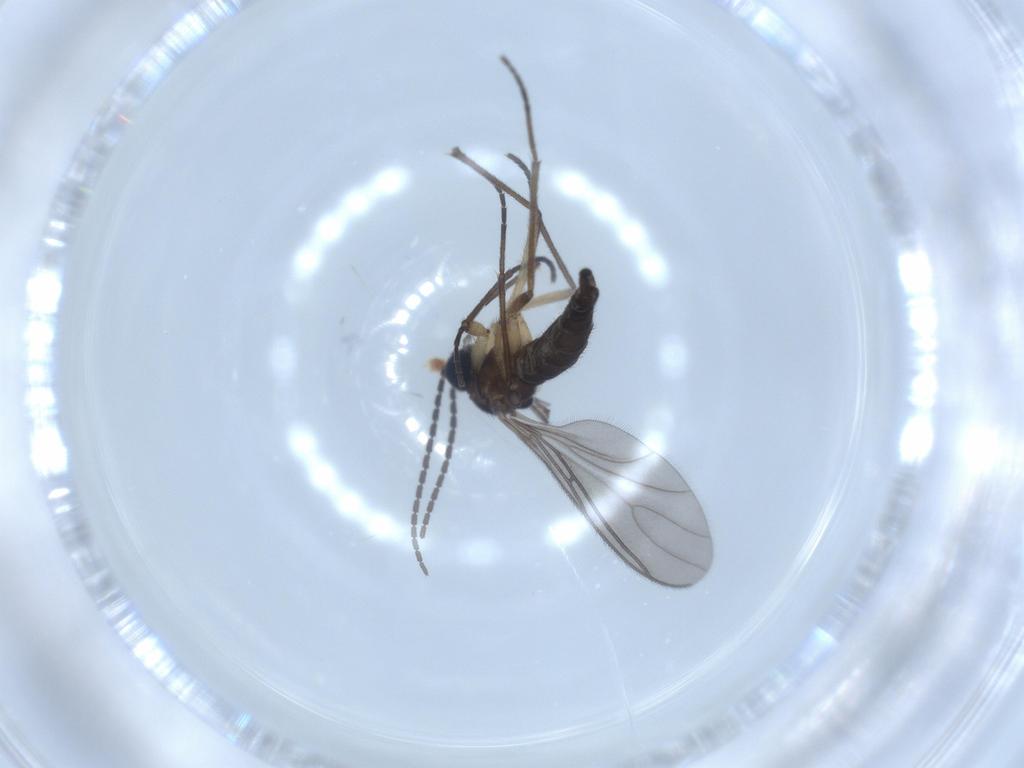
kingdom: Animalia
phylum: Arthropoda
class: Insecta
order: Diptera
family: Sciaridae
